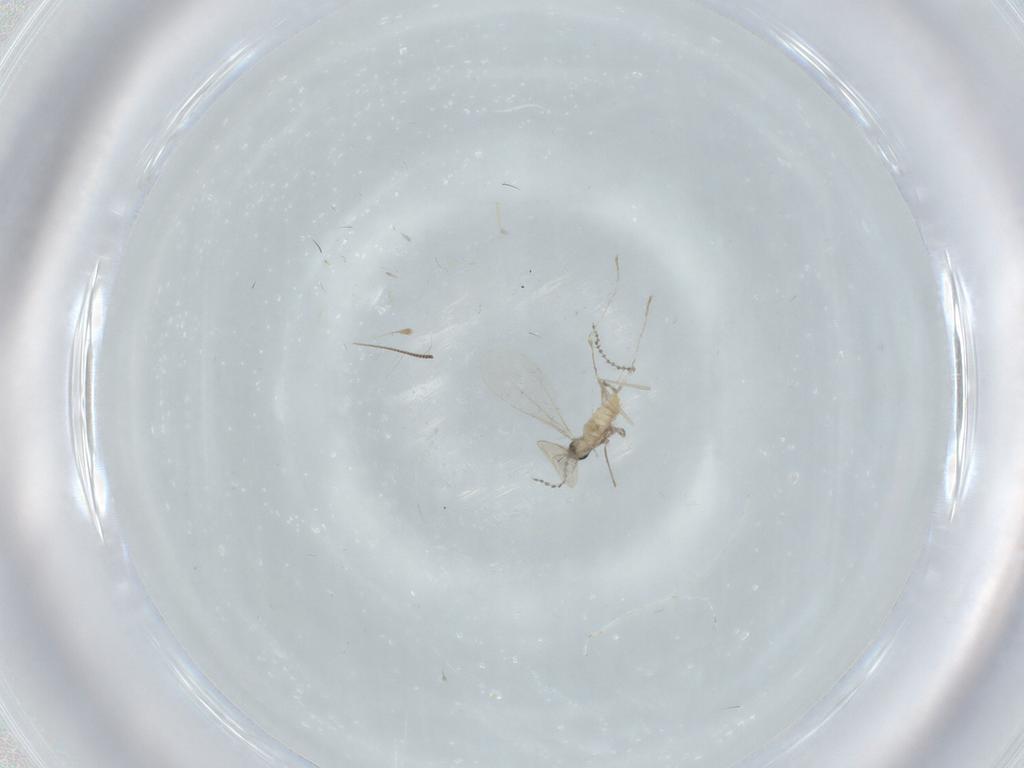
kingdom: Animalia
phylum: Arthropoda
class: Insecta
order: Diptera
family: Cecidomyiidae
